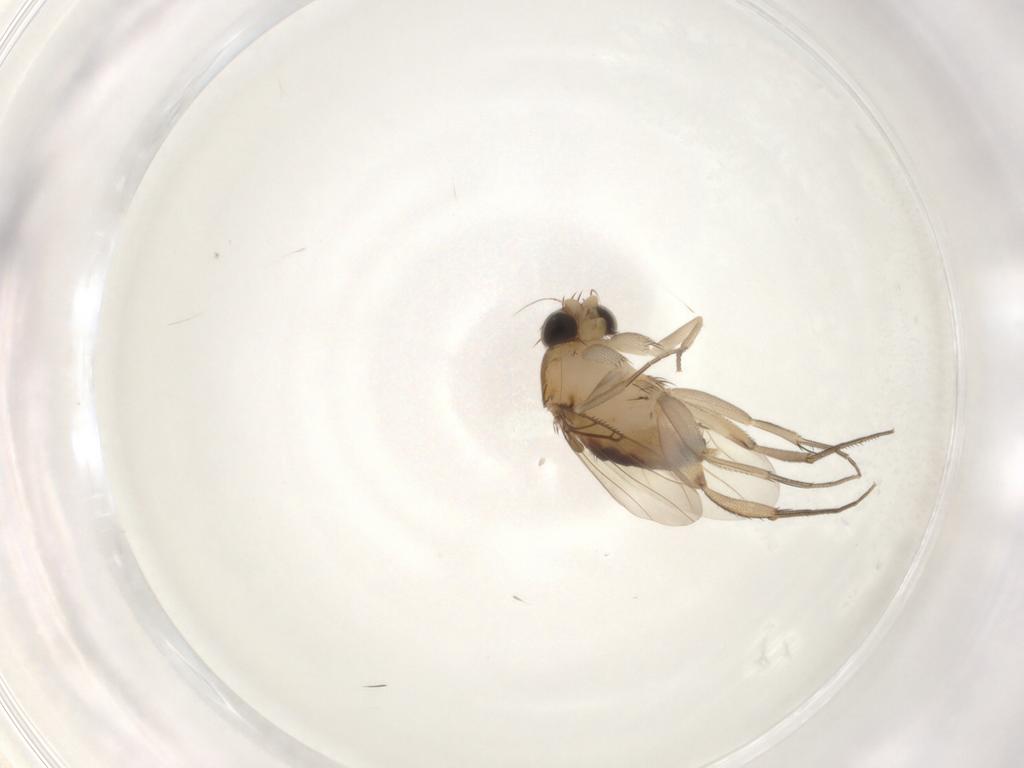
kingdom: Animalia
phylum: Arthropoda
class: Insecta
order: Diptera
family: Phoridae
